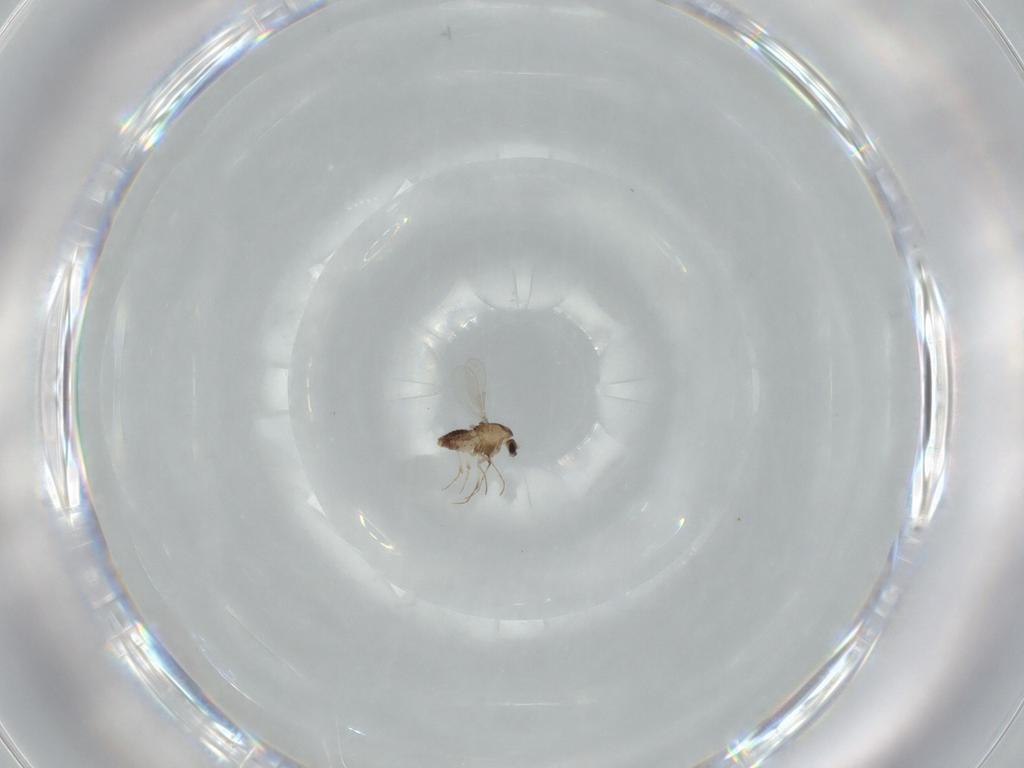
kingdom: Animalia
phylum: Arthropoda
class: Insecta
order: Diptera
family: Chironomidae
